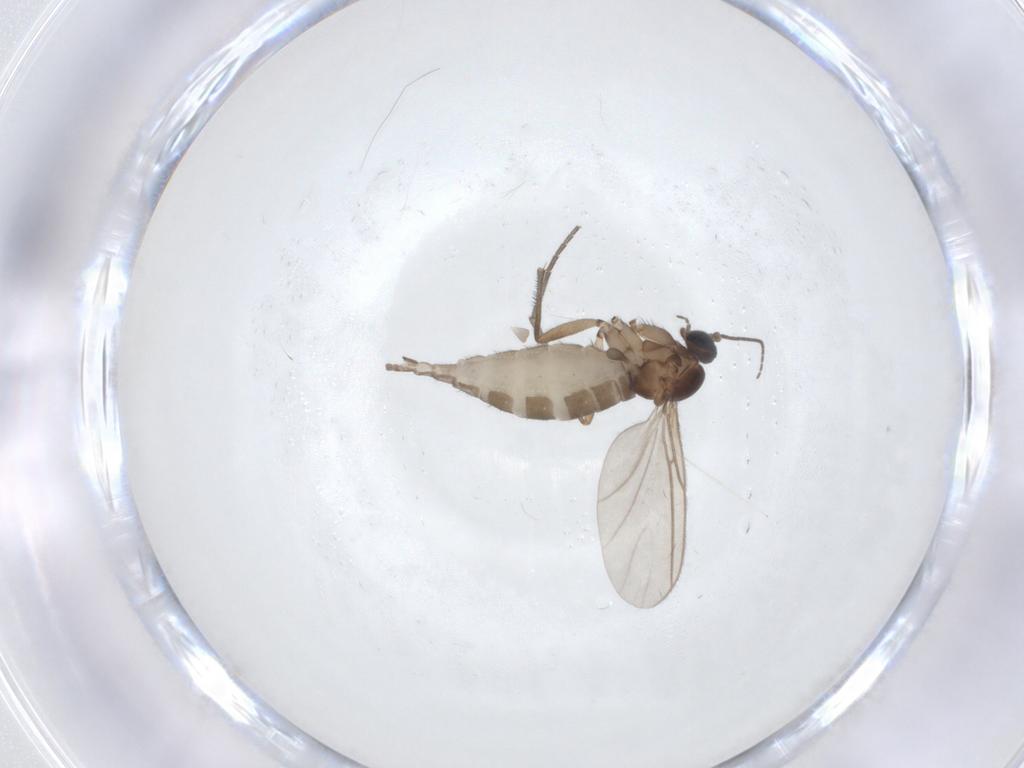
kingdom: Animalia
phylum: Arthropoda
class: Insecta
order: Diptera
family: Sciaridae
